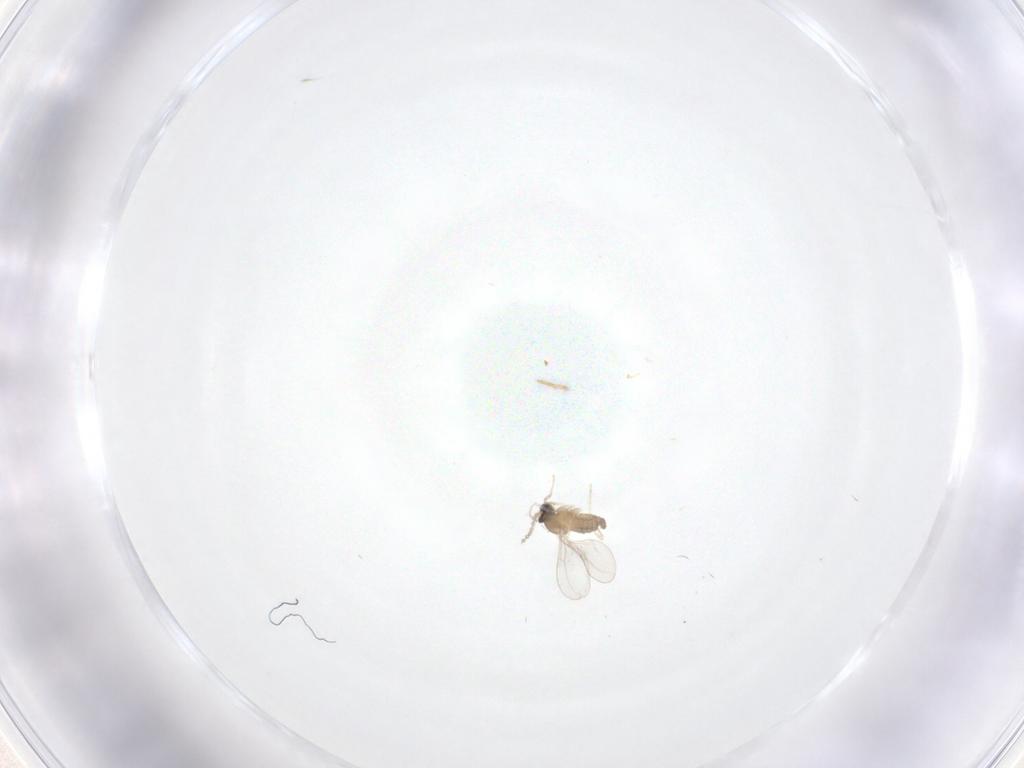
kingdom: Animalia
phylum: Arthropoda
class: Insecta
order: Diptera
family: Cecidomyiidae
